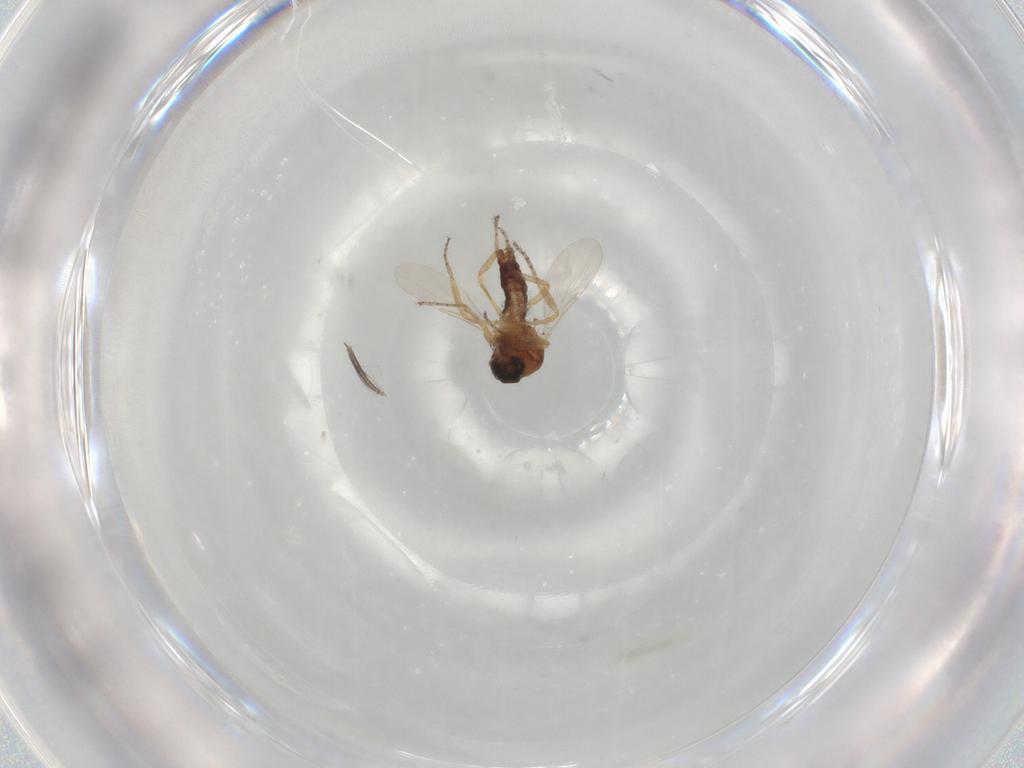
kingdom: Animalia
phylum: Arthropoda
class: Insecta
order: Diptera
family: Ceratopogonidae
